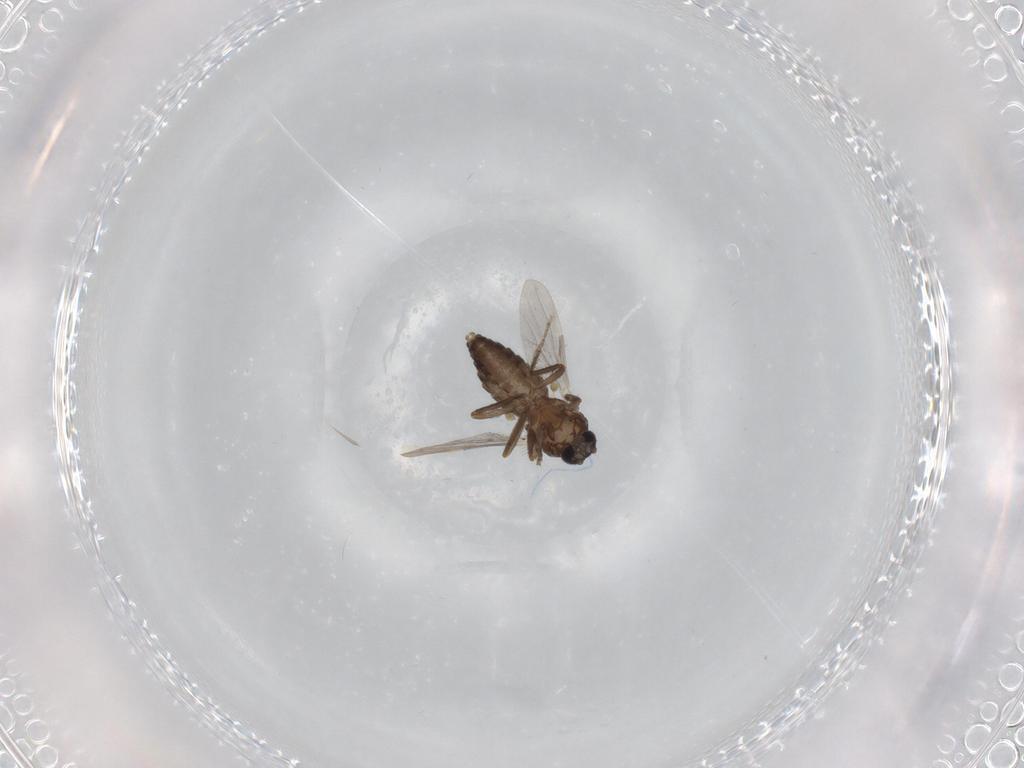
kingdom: Animalia
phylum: Arthropoda
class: Insecta
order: Diptera
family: Ceratopogonidae
